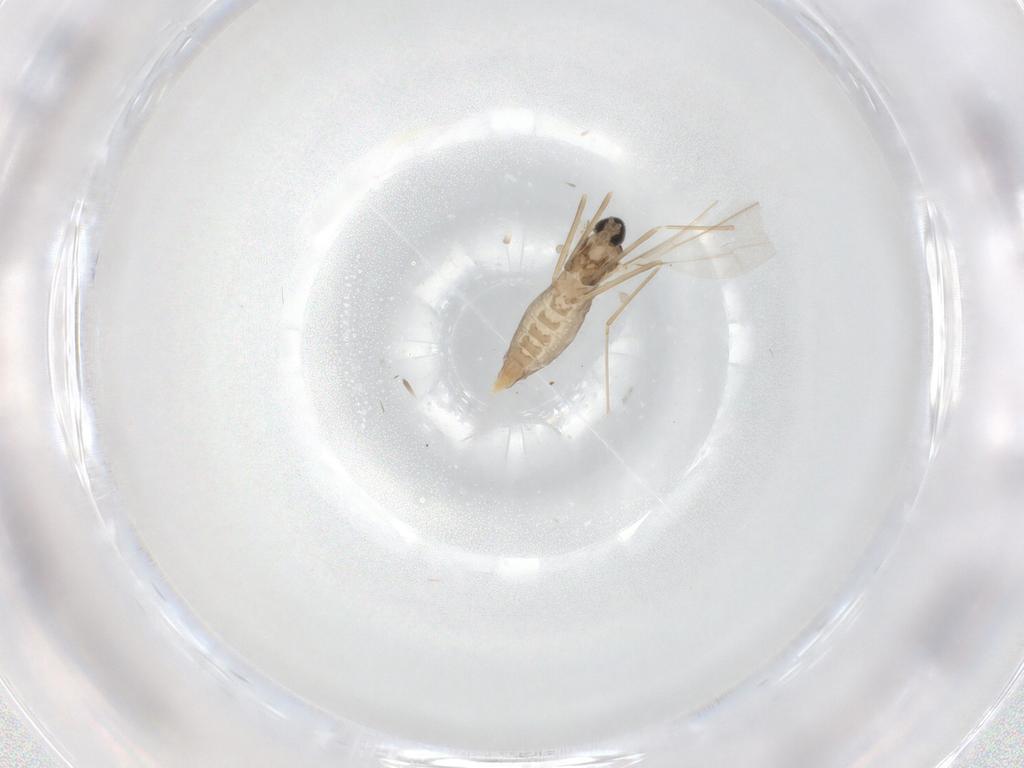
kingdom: Animalia
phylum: Arthropoda
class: Insecta
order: Diptera
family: Cecidomyiidae
